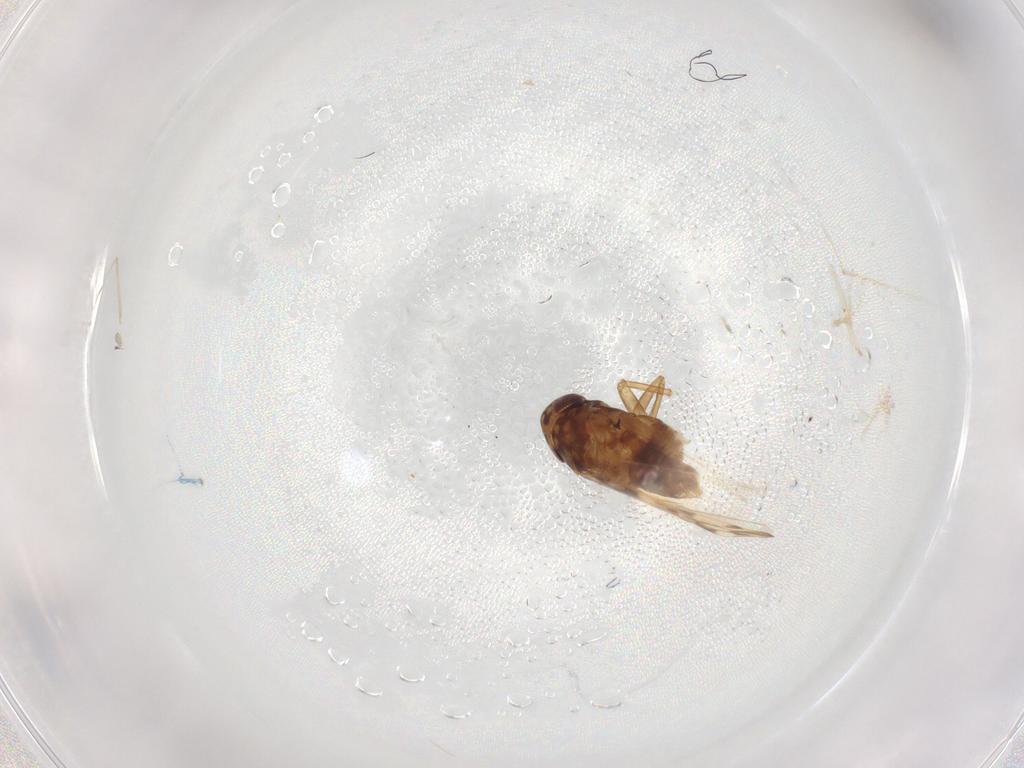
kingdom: Animalia
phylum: Arthropoda
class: Insecta
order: Hemiptera
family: Cicadellidae
